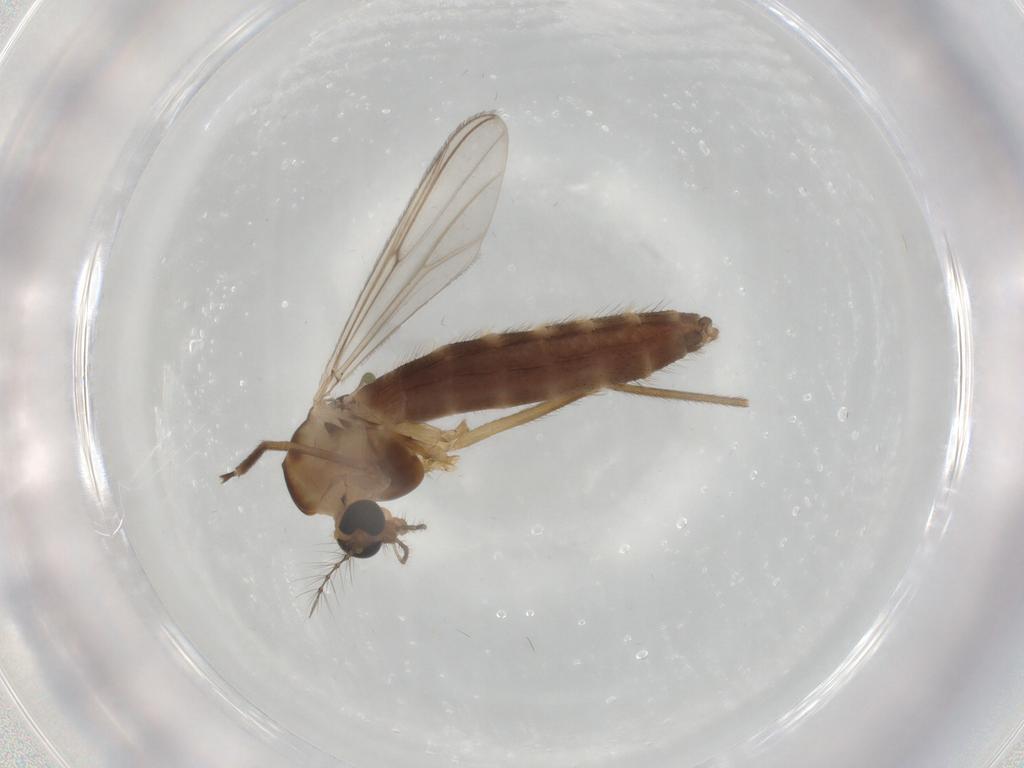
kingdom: Animalia
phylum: Arthropoda
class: Insecta
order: Diptera
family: Chironomidae
